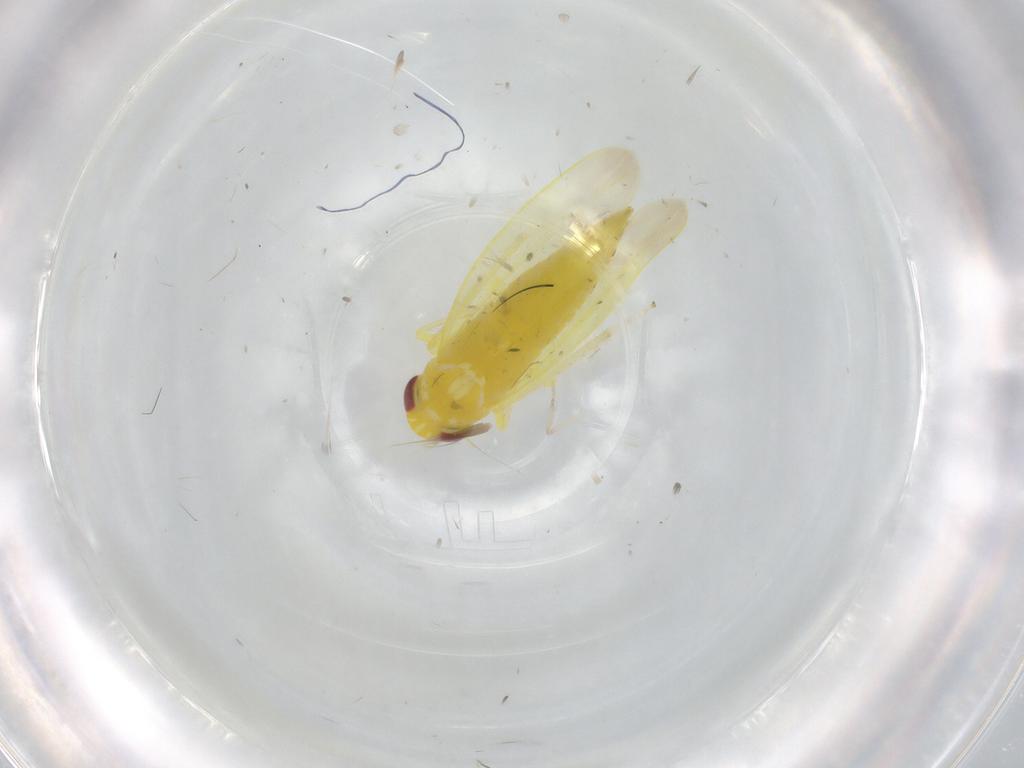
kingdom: Animalia
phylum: Arthropoda
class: Insecta
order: Hemiptera
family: Cicadellidae
